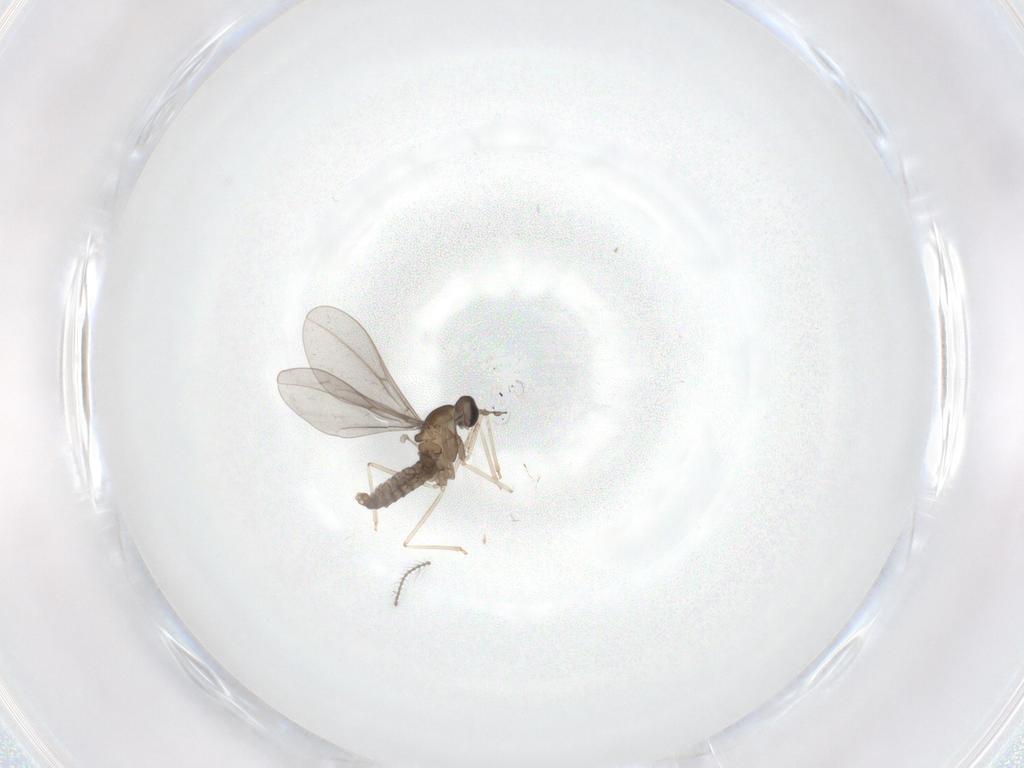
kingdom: Animalia
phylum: Arthropoda
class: Insecta
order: Diptera
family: Cecidomyiidae
